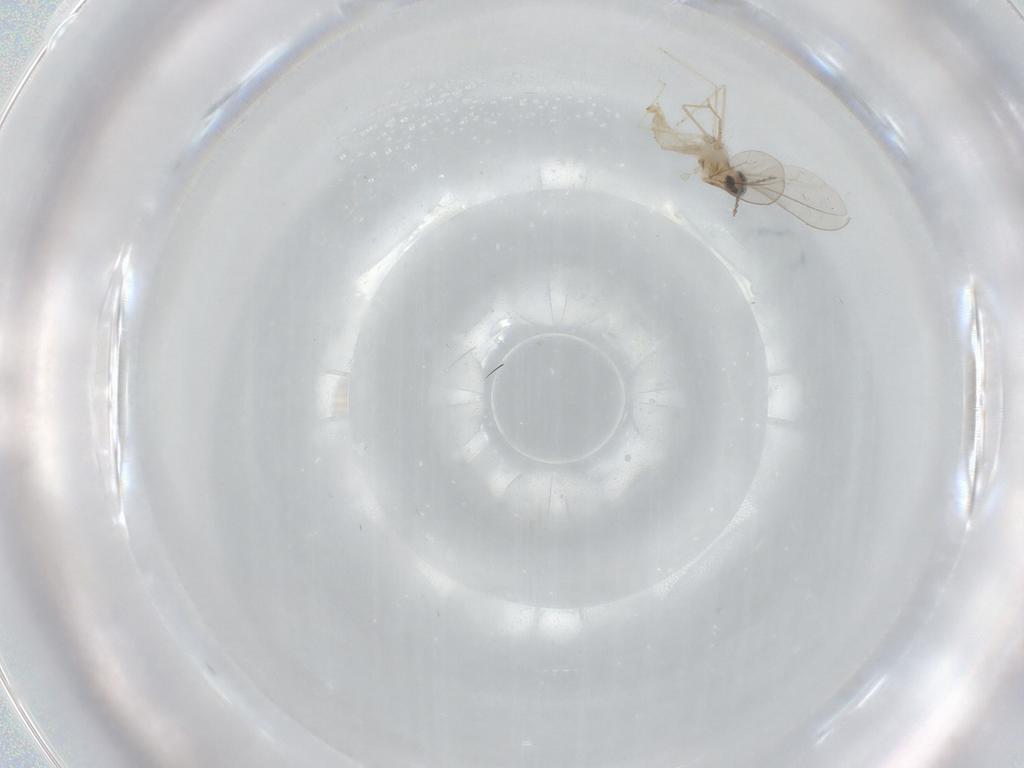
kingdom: Animalia
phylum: Arthropoda
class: Insecta
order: Diptera
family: Cecidomyiidae
